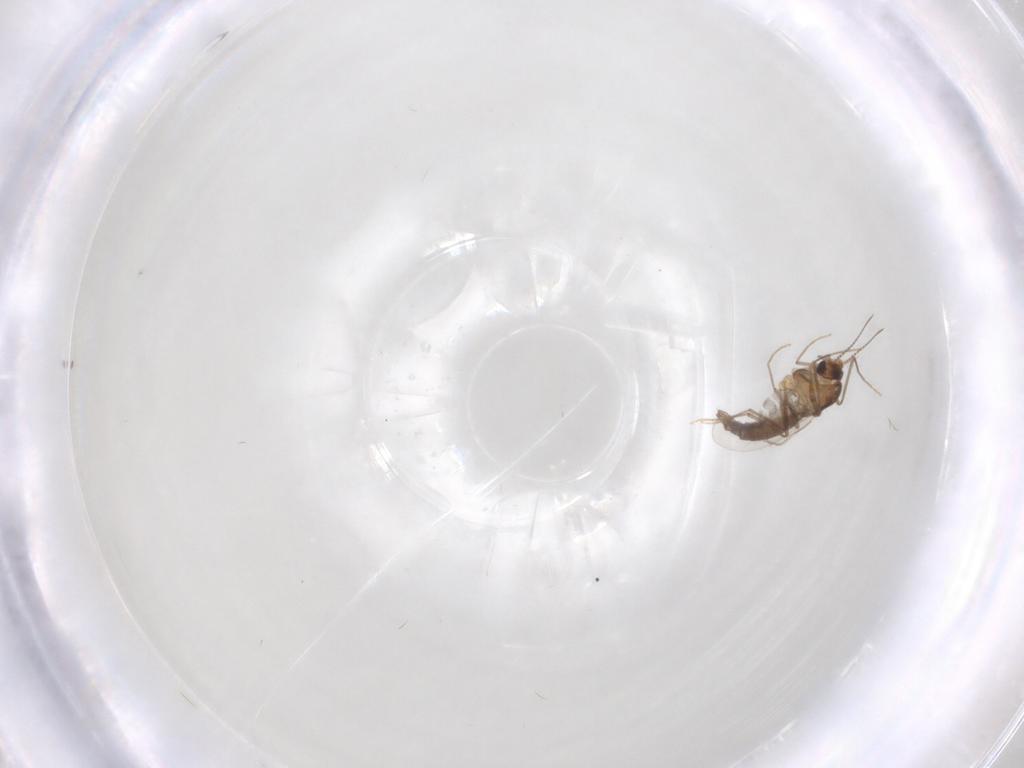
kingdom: Animalia
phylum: Arthropoda
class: Insecta
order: Diptera
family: Chironomidae
